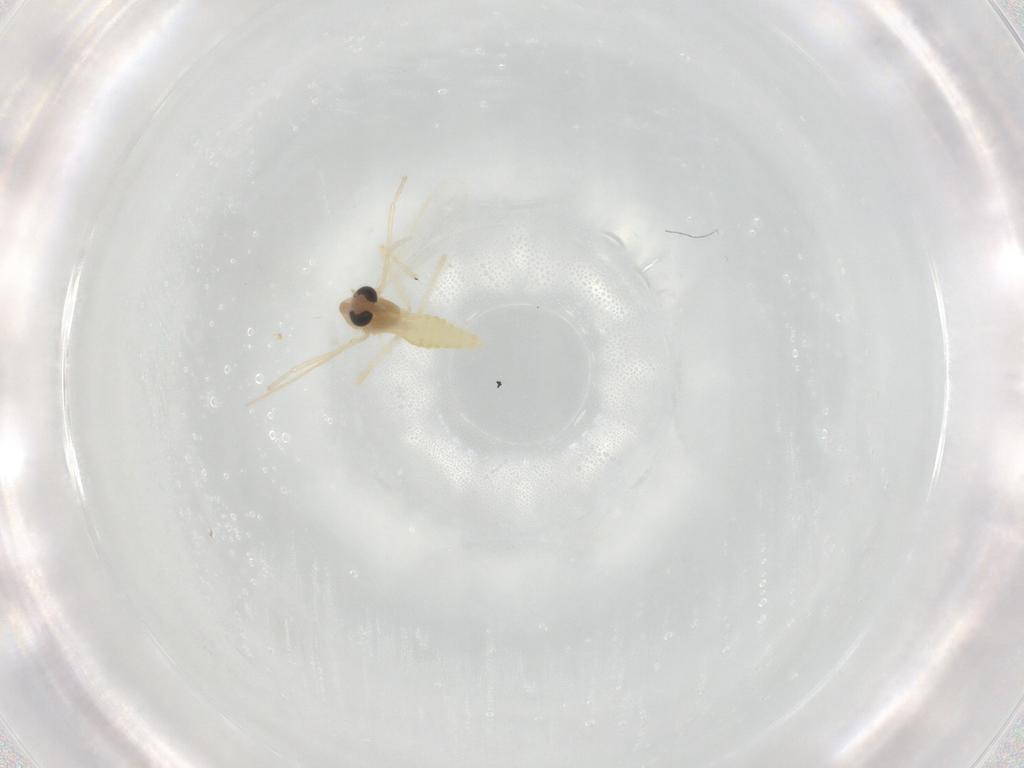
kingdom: Animalia
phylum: Arthropoda
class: Insecta
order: Diptera
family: Chironomidae
